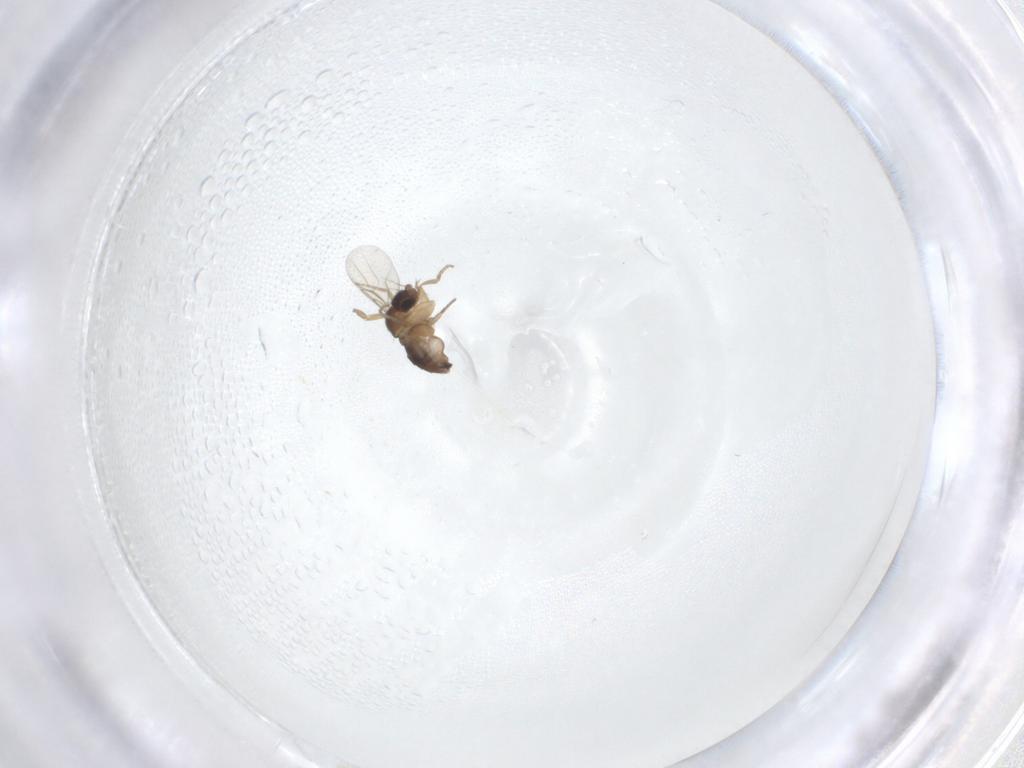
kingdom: Animalia
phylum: Arthropoda
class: Insecta
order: Diptera
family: Phoridae
